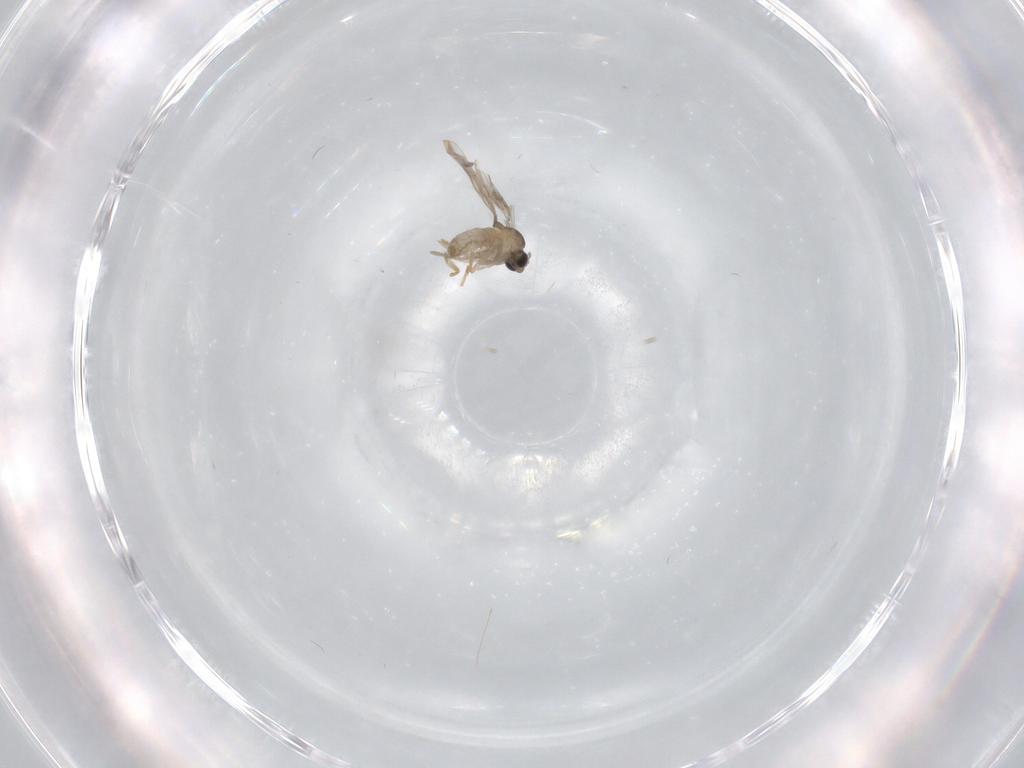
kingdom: Animalia
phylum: Arthropoda
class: Insecta
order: Diptera
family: Cecidomyiidae
